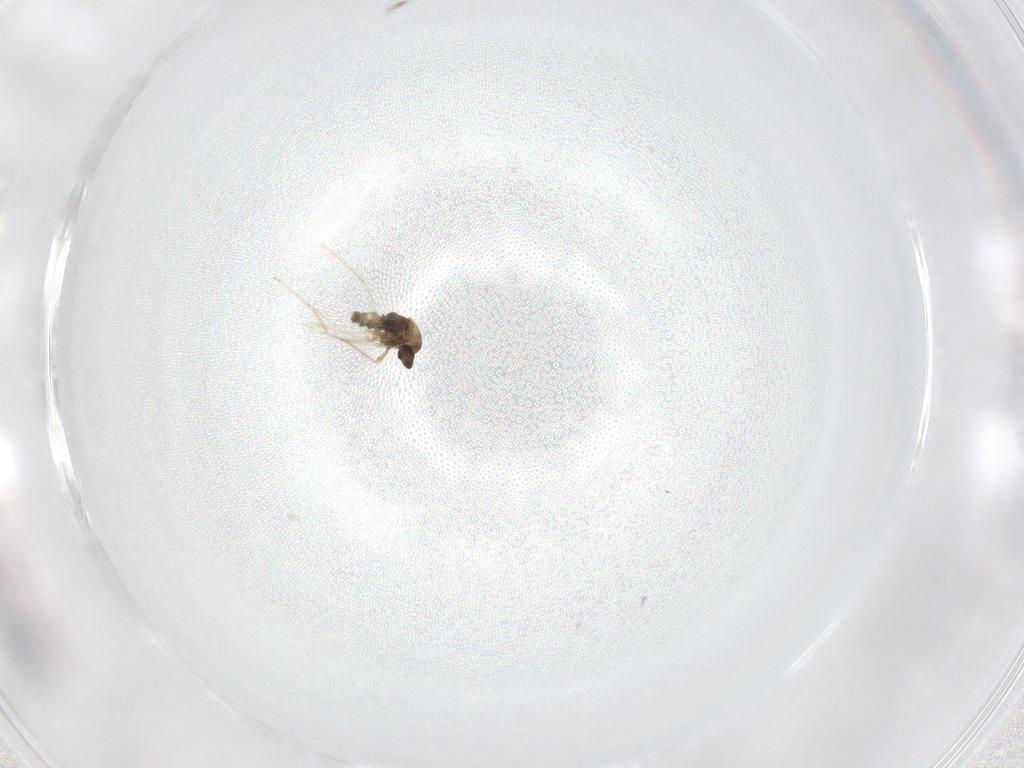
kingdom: Animalia
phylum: Arthropoda
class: Insecta
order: Diptera
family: Cecidomyiidae
